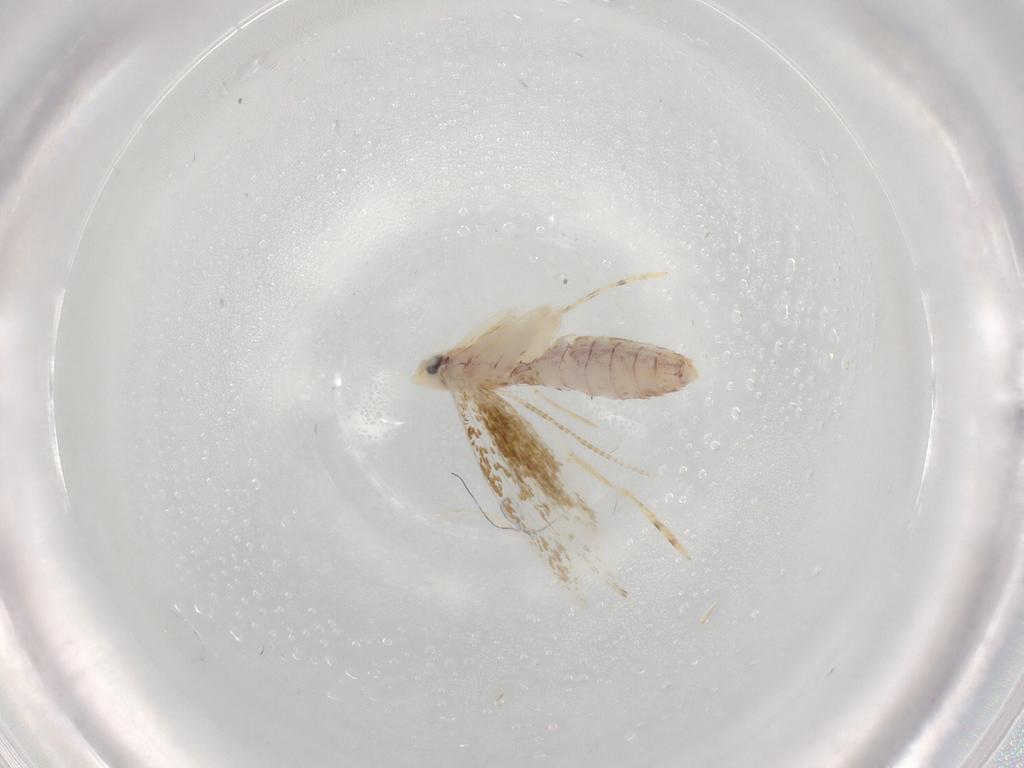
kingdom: Animalia
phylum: Arthropoda
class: Insecta
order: Lepidoptera
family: Lyonetiidae
